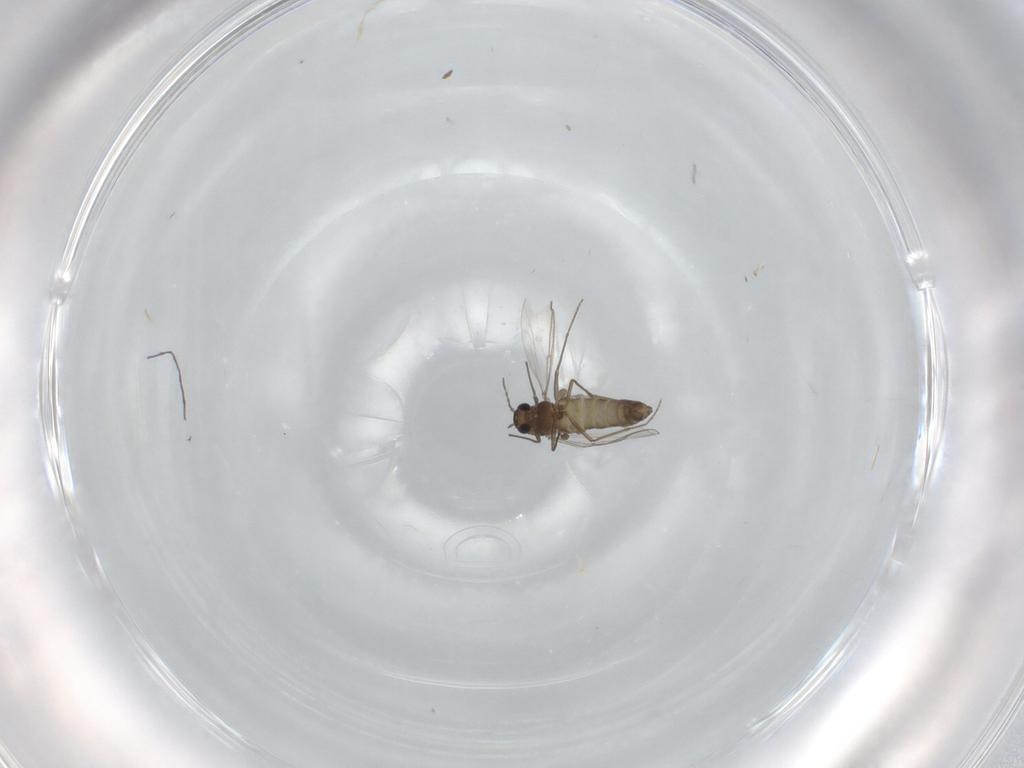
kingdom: Animalia
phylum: Arthropoda
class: Insecta
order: Diptera
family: Chironomidae
